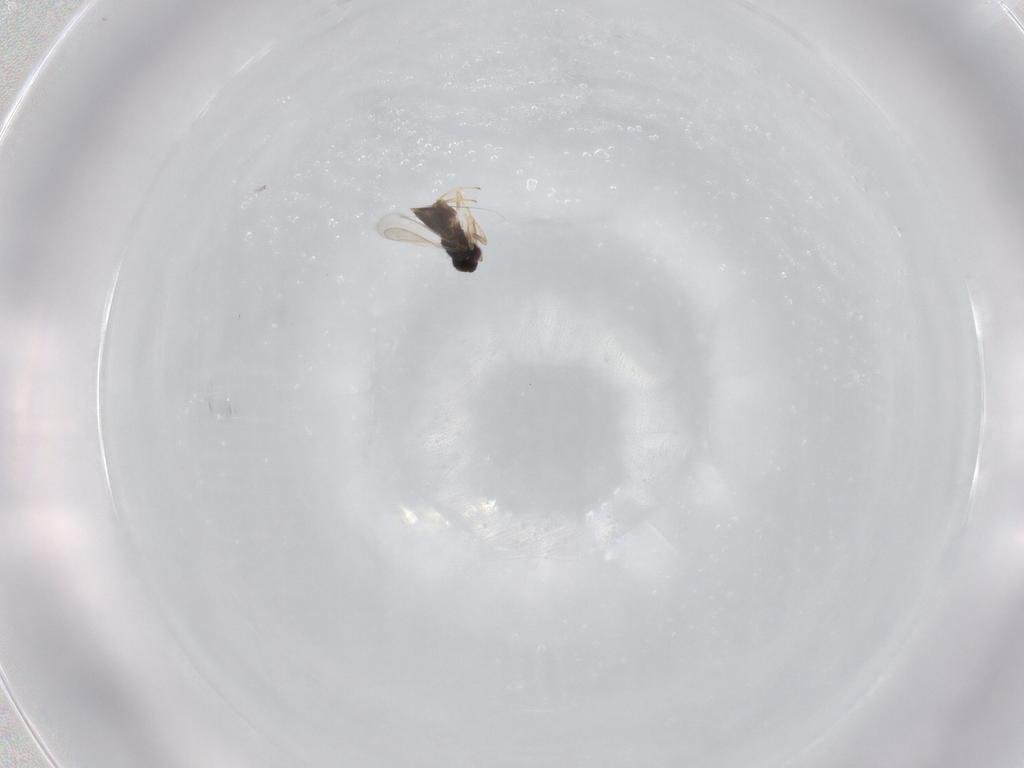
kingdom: Animalia
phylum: Arthropoda
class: Insecta
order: Hymenoptera
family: Aphelinidae
